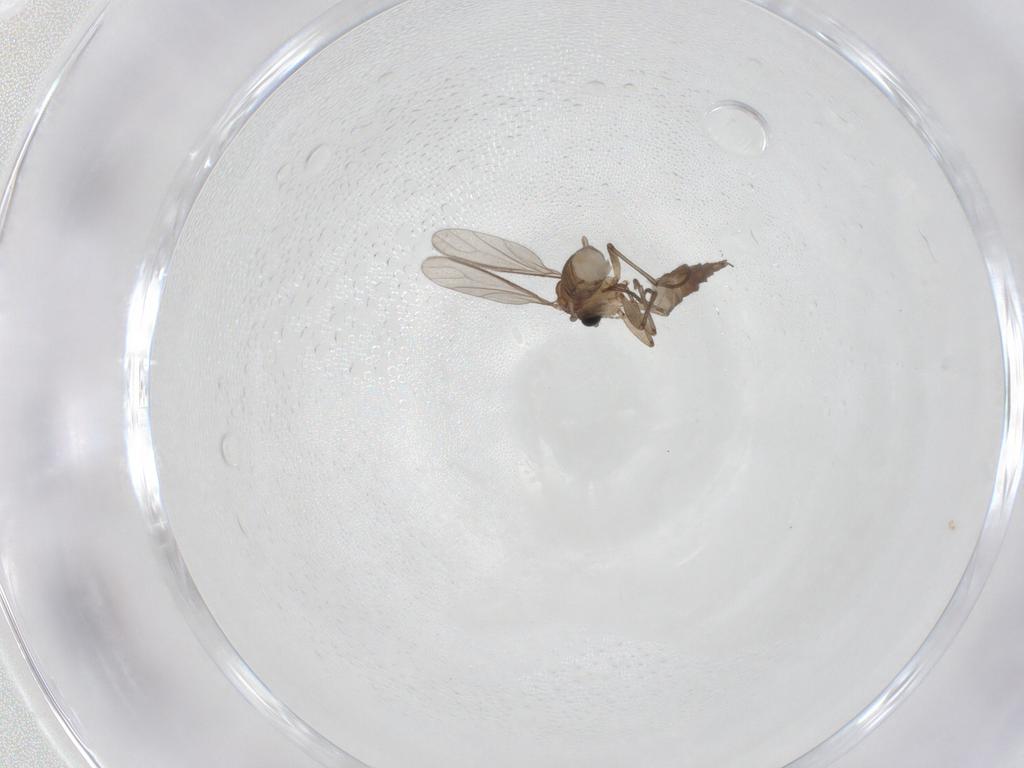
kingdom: Animalia
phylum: Arthropoda
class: Insecta
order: Diptera
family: Sciaridae
